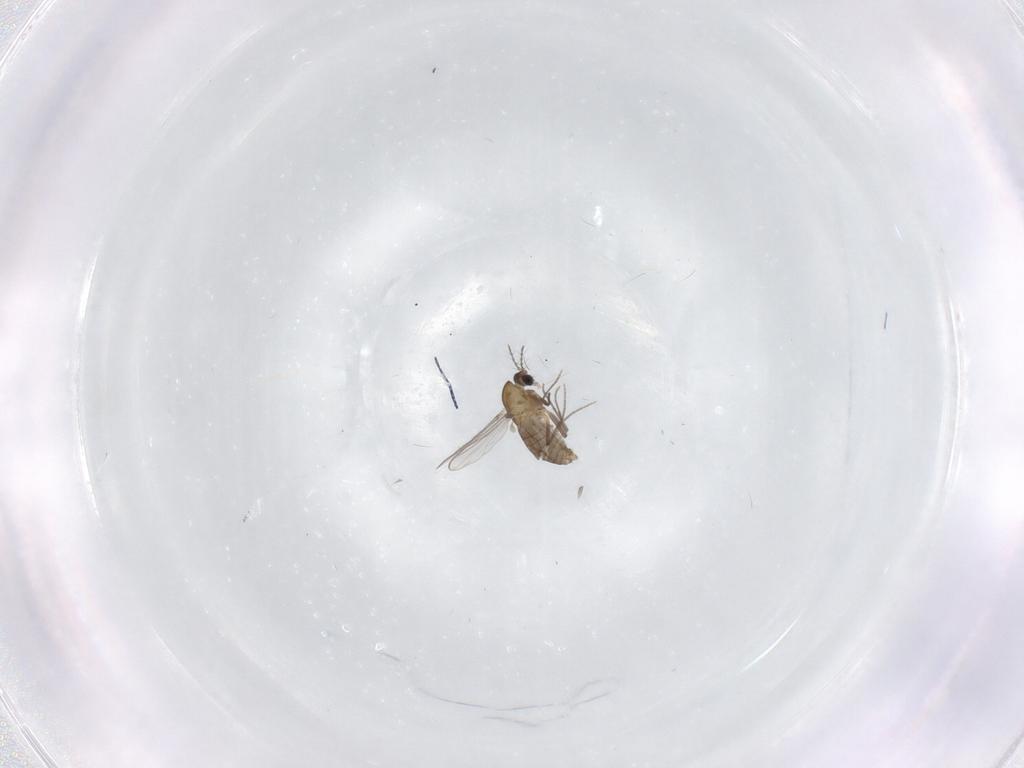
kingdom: Animalia
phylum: Arthropoda
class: Insecta
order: Diptera
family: Chironomidae
